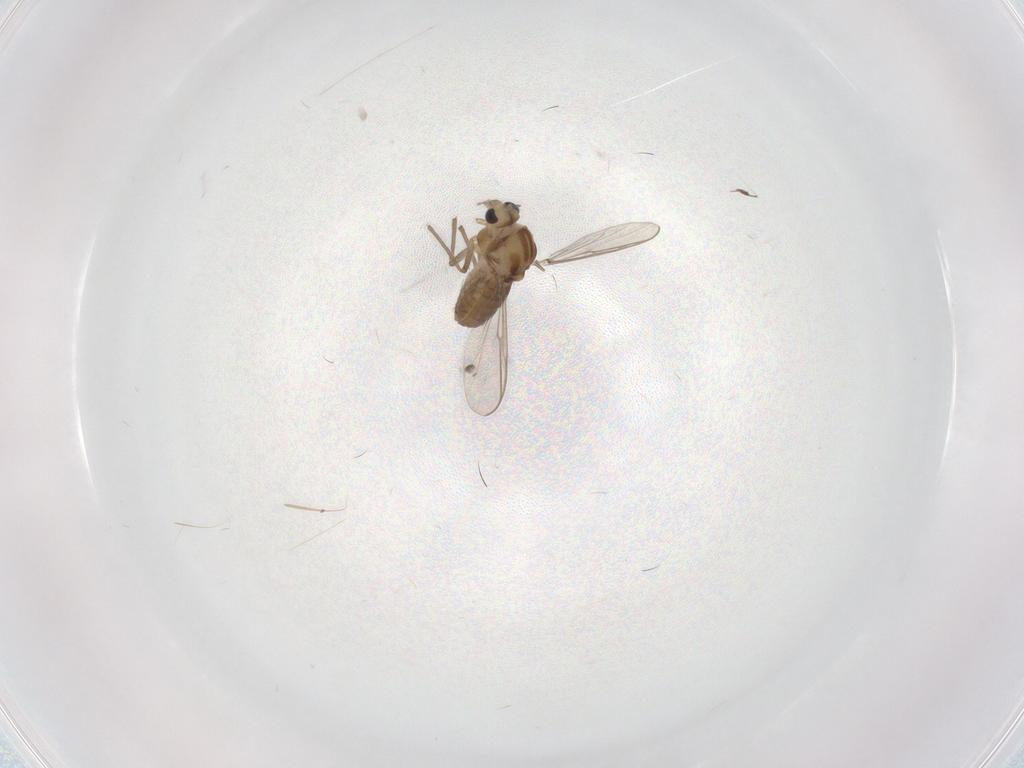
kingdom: Animalia
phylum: Arthropoda
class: Insecta
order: Diptera
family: Chironomidae
